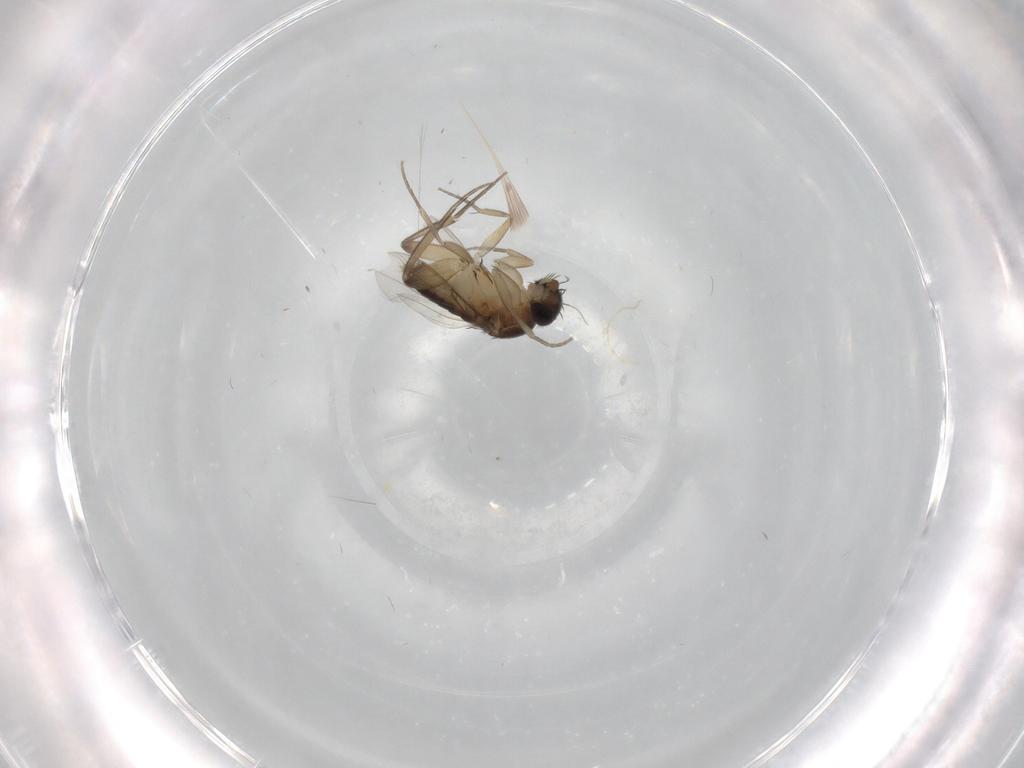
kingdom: Animalia
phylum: Arthropoda
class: Insecta
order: Diptera
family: Phoridae
